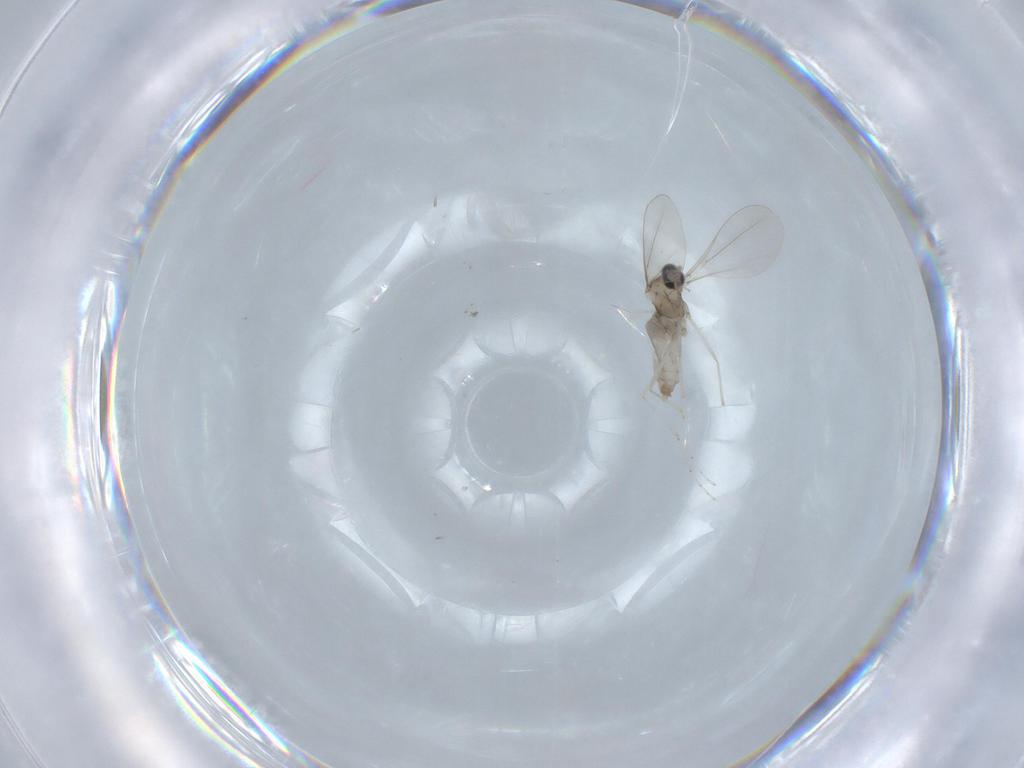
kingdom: Animalia
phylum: Arthropoda
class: Insecta
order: Diptera
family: Cecidomyiidae
